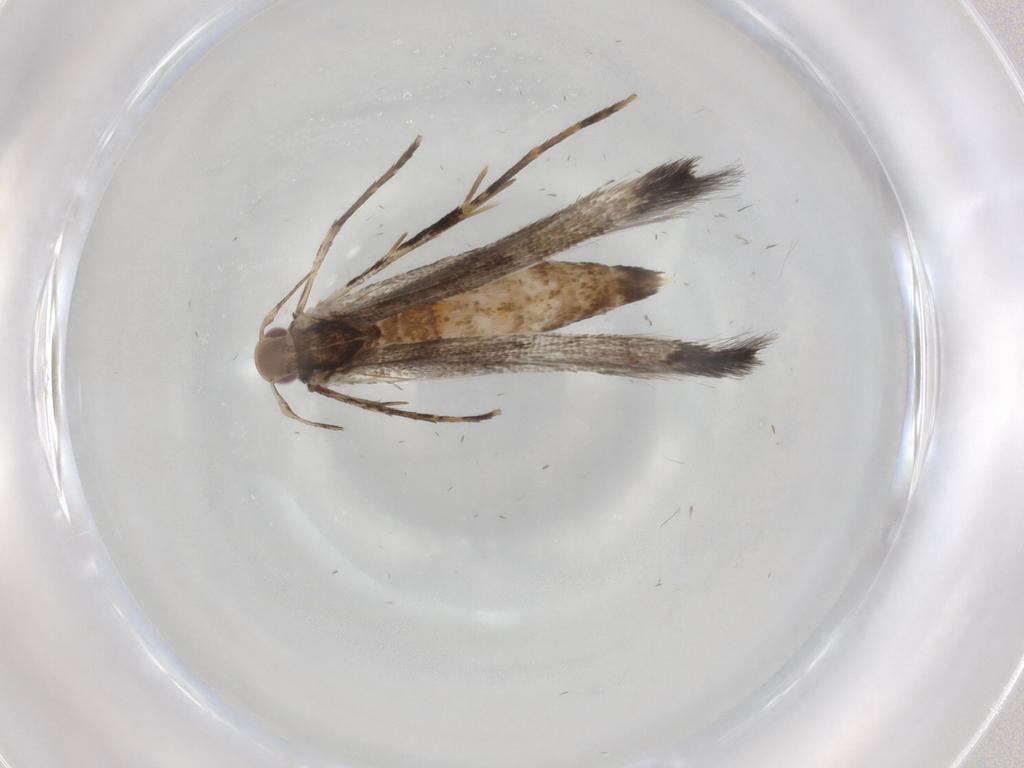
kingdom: Animalia
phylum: Arthropoda
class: Insecta
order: Lepidoptera
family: Cosmopterigidae
